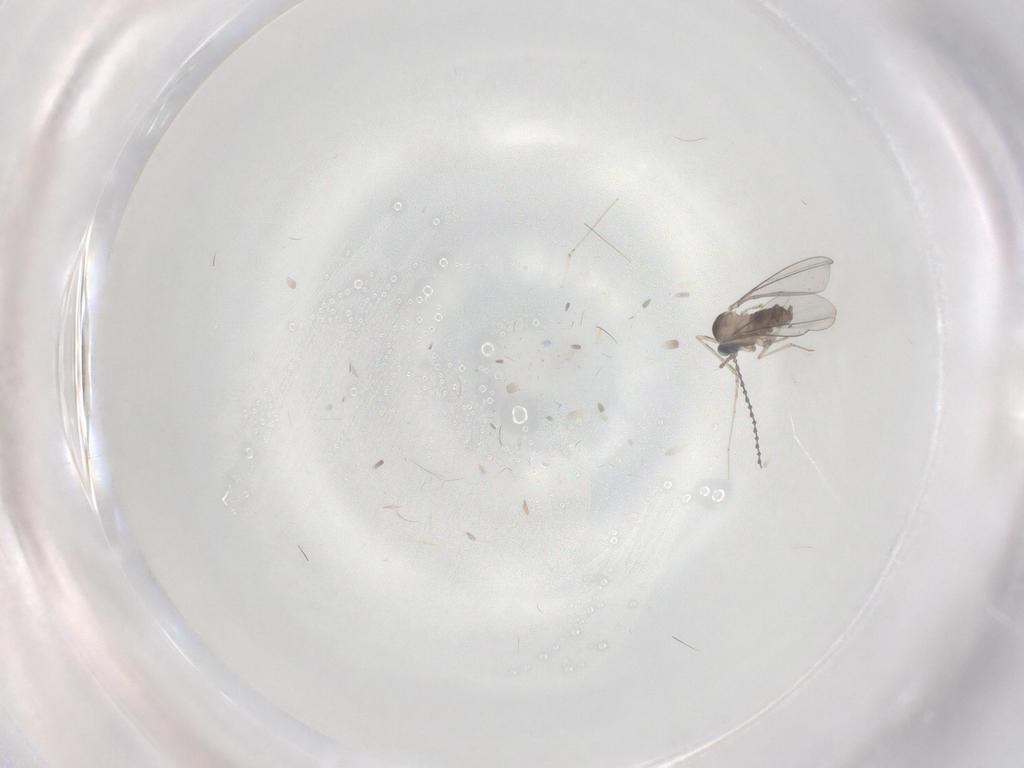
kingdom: Animalia
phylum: Arthropoda
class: Insecta
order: Diptera
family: Cecidomyiidae
